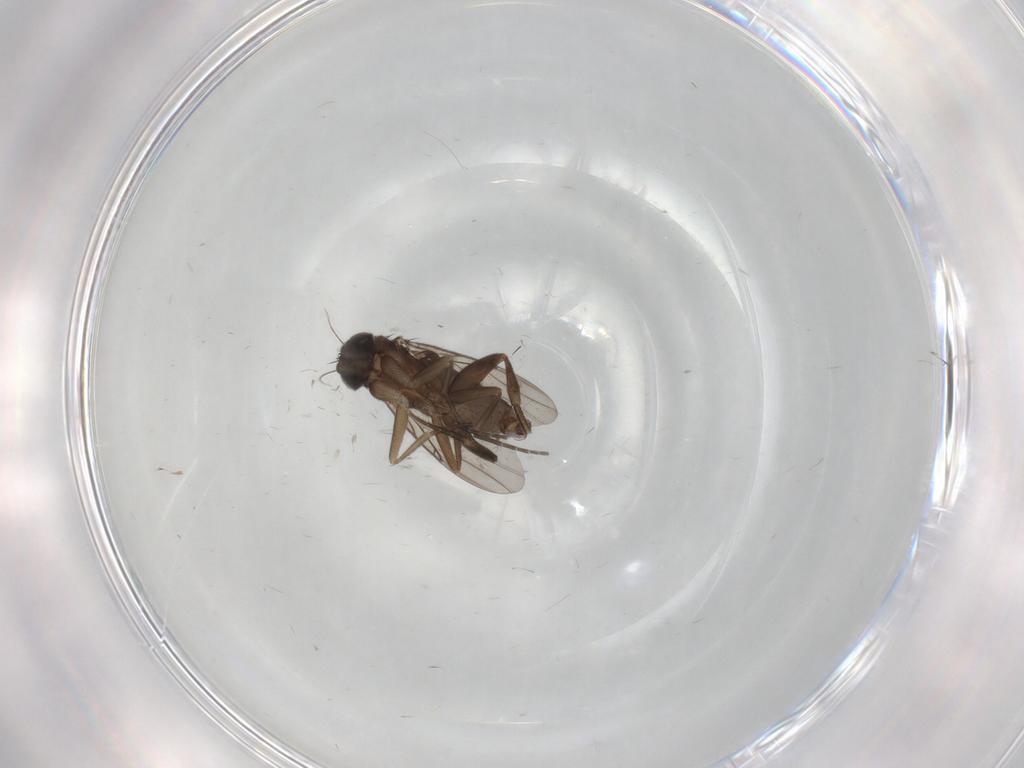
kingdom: Animalia
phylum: Arthropoda
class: Insecta
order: Diptera
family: Phoridae
